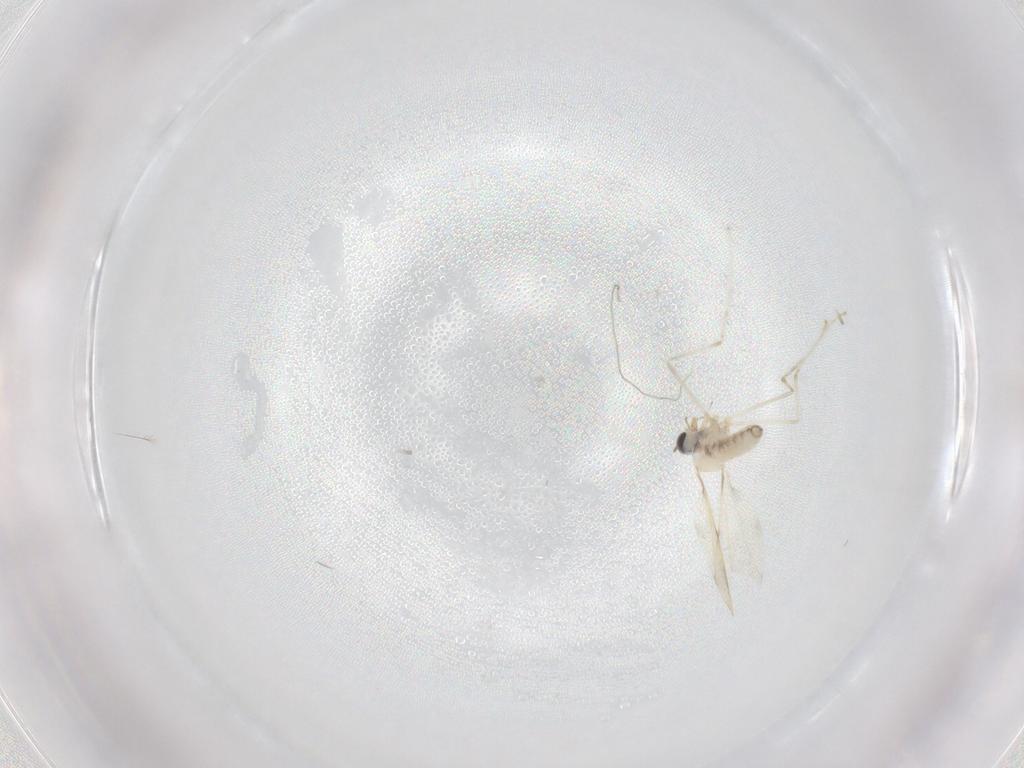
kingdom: Animalia
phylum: Arthropoda
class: Insecta
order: Diptera
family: Cecidomyiidae
